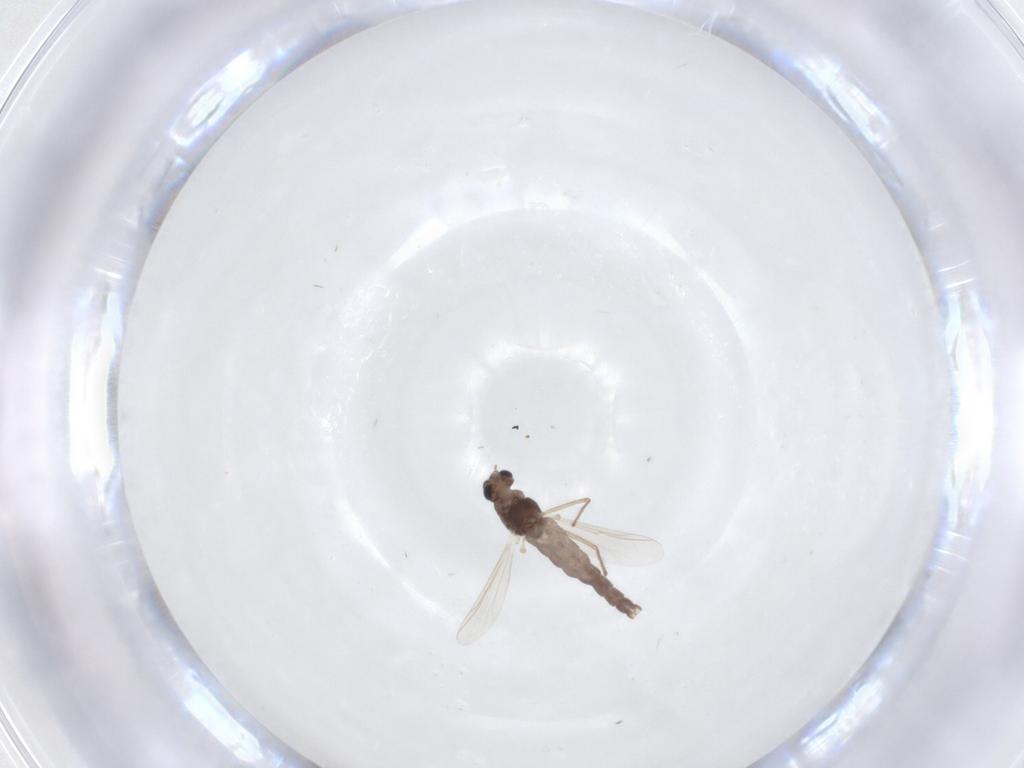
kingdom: Animalia
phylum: Arthropoda
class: Insecta
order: Diptera
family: Chironomidae
